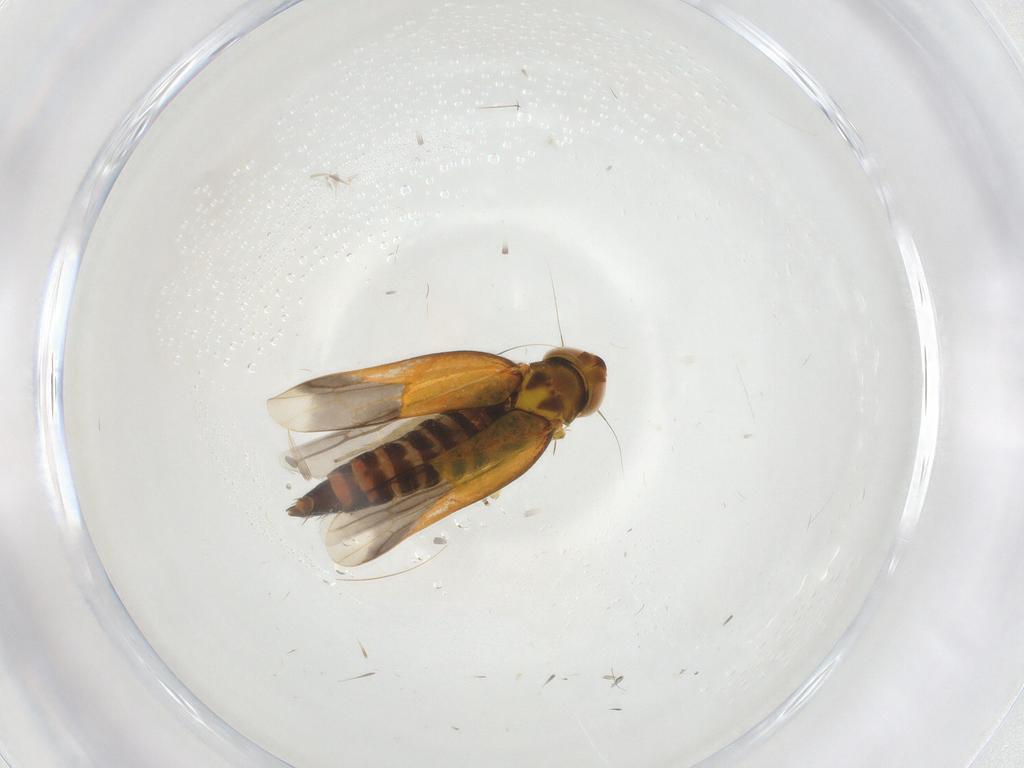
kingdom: Animalia
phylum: Arthropoda
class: Insecta
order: Hemiptera
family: Cicadellidae
